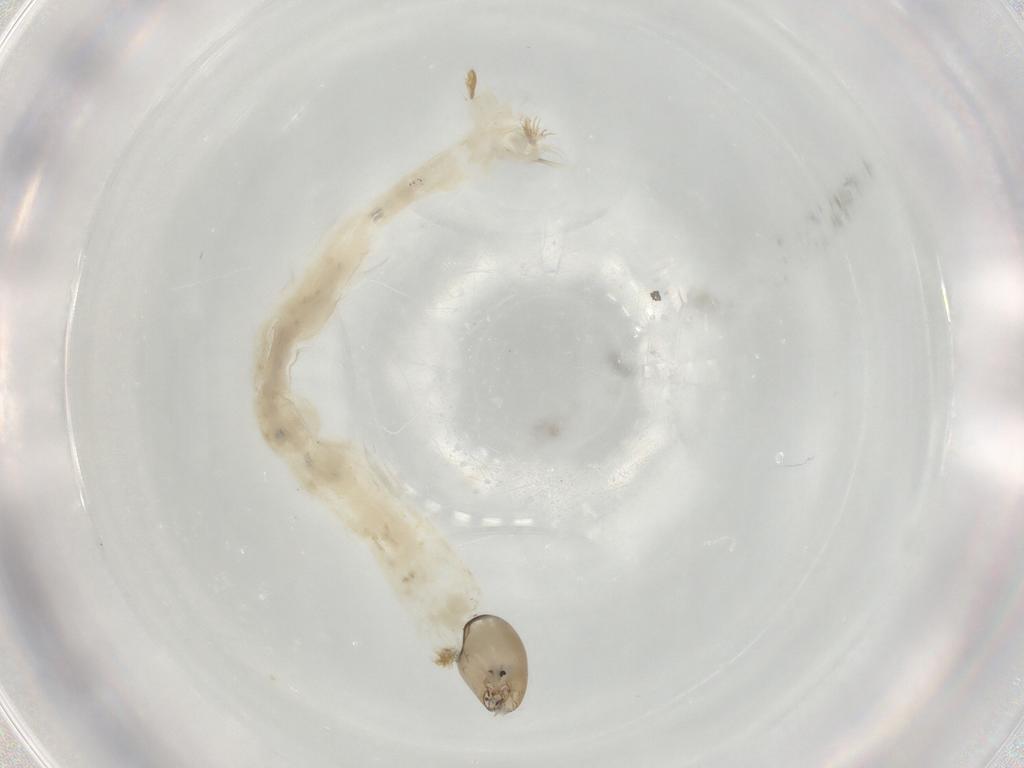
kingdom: Animalia
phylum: Arthropoda
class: Insecta
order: Diptera
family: Chironomidae
